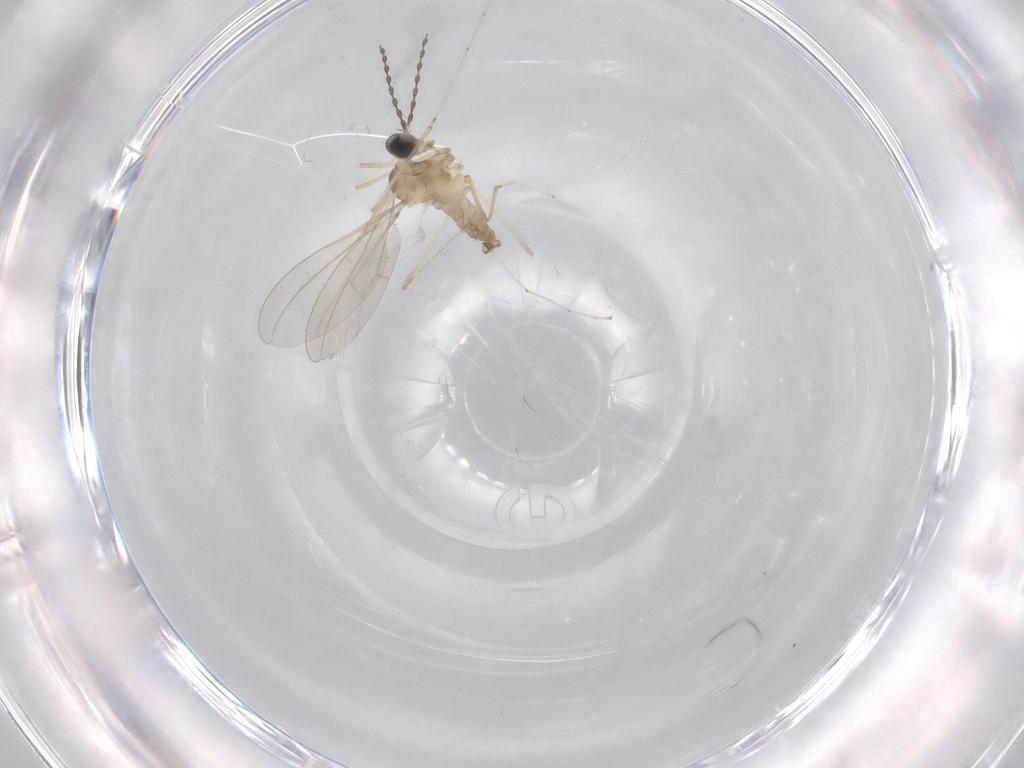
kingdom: Animalia
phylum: Arthropoda
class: Insecta
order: Diptera
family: Cecidomyiidae
